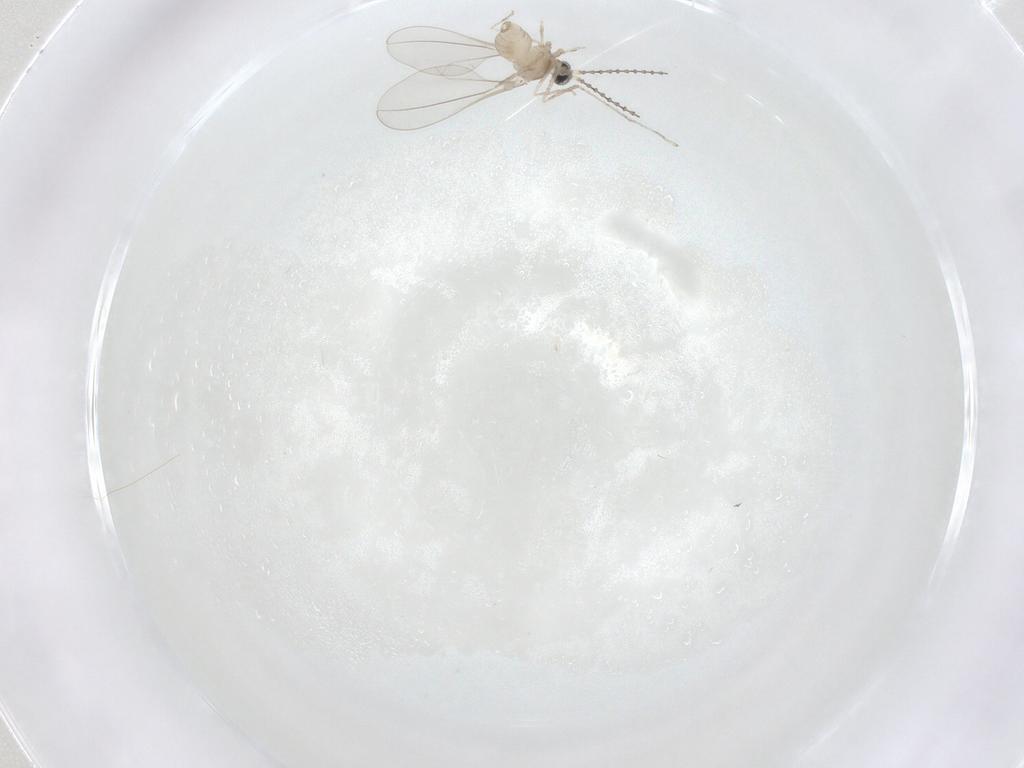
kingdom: Animalia
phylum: Arthropoda
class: Insecta
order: Diptera
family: Cecidomyiidae
